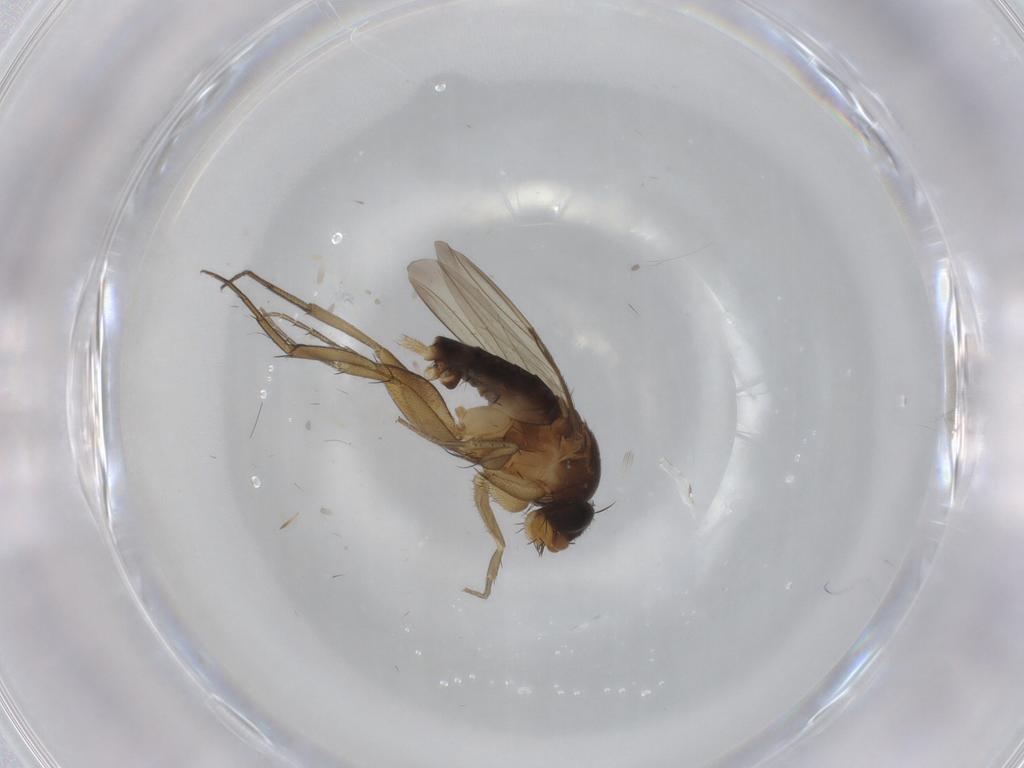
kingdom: Animalia
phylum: Arthropoda
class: Insecta
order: Diptera
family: Phoridae
